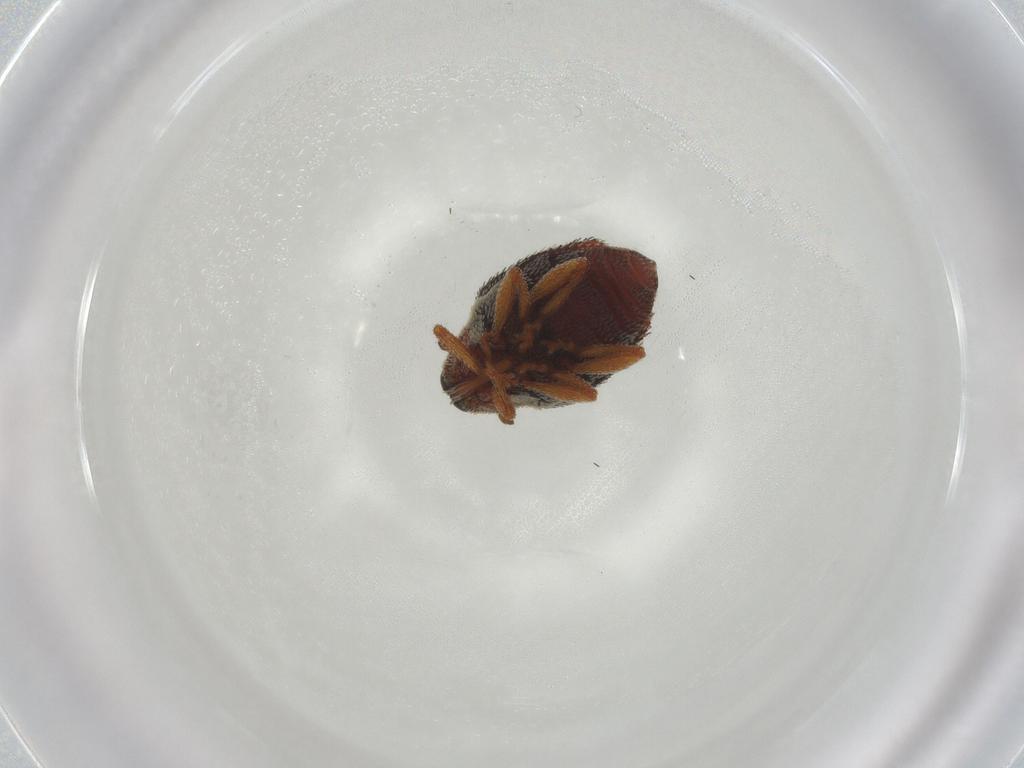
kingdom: Animalia
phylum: Arthropoda
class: Insecta
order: Coleoptera
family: Curculionidae
